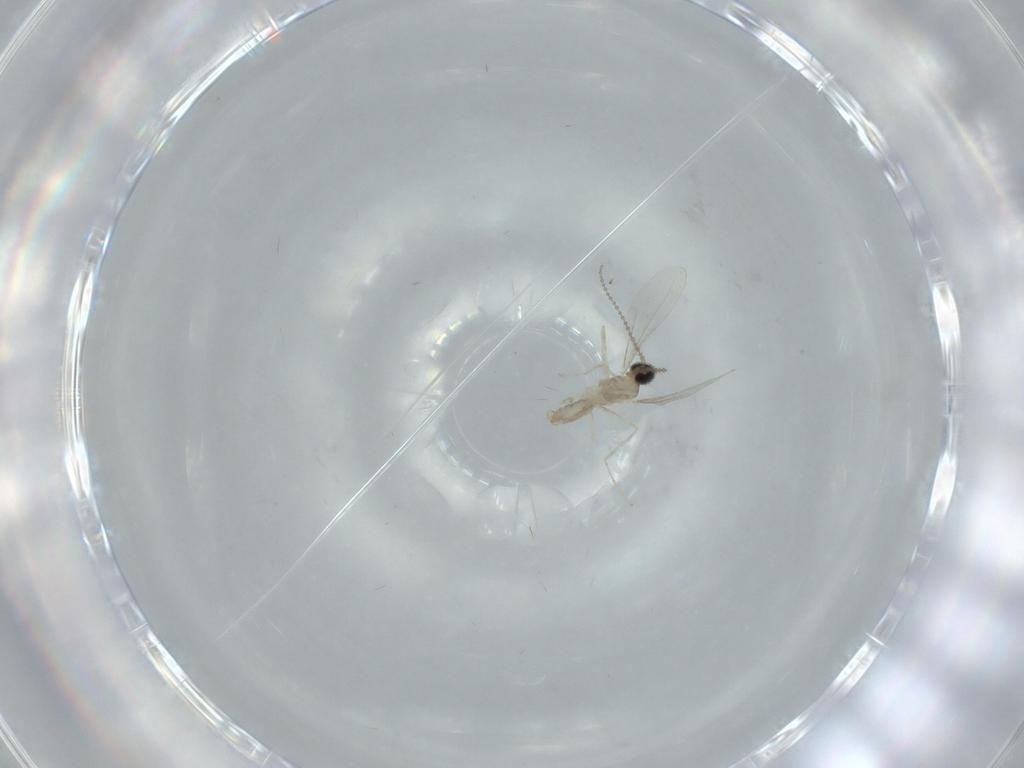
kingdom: Animalia
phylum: Arthropoda
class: Insecta
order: Diptera
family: Cecidomyiidae
